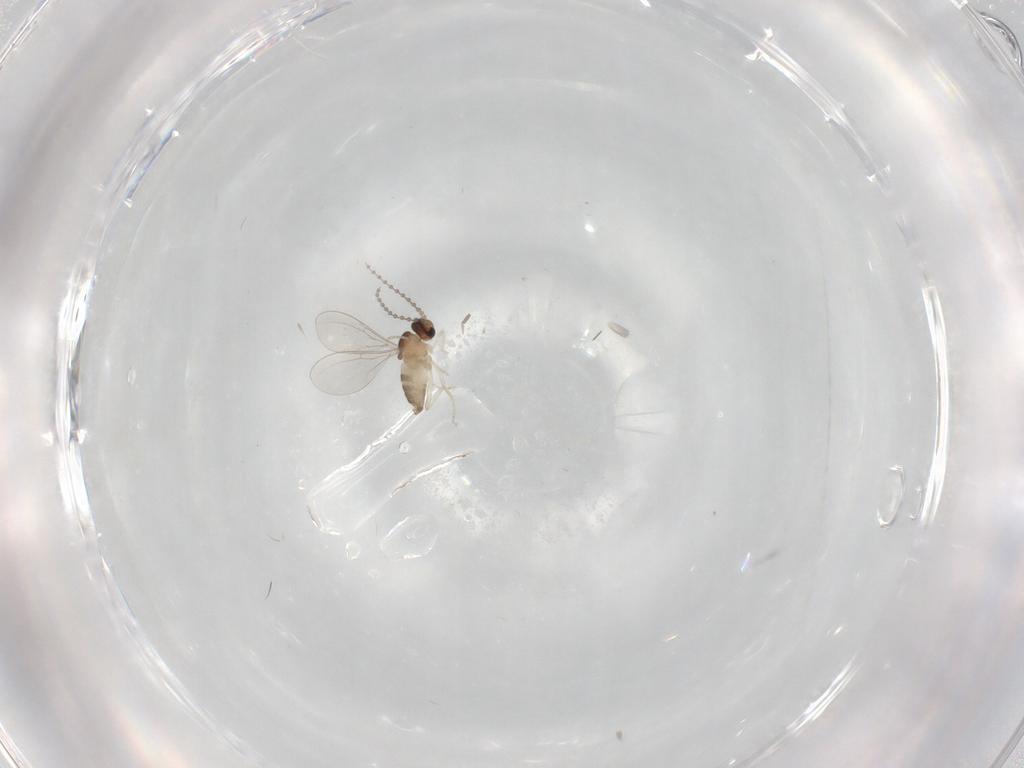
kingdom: Animalia
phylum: Arthropoda
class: Insecta
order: Diptera
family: Cecidomyiidae
